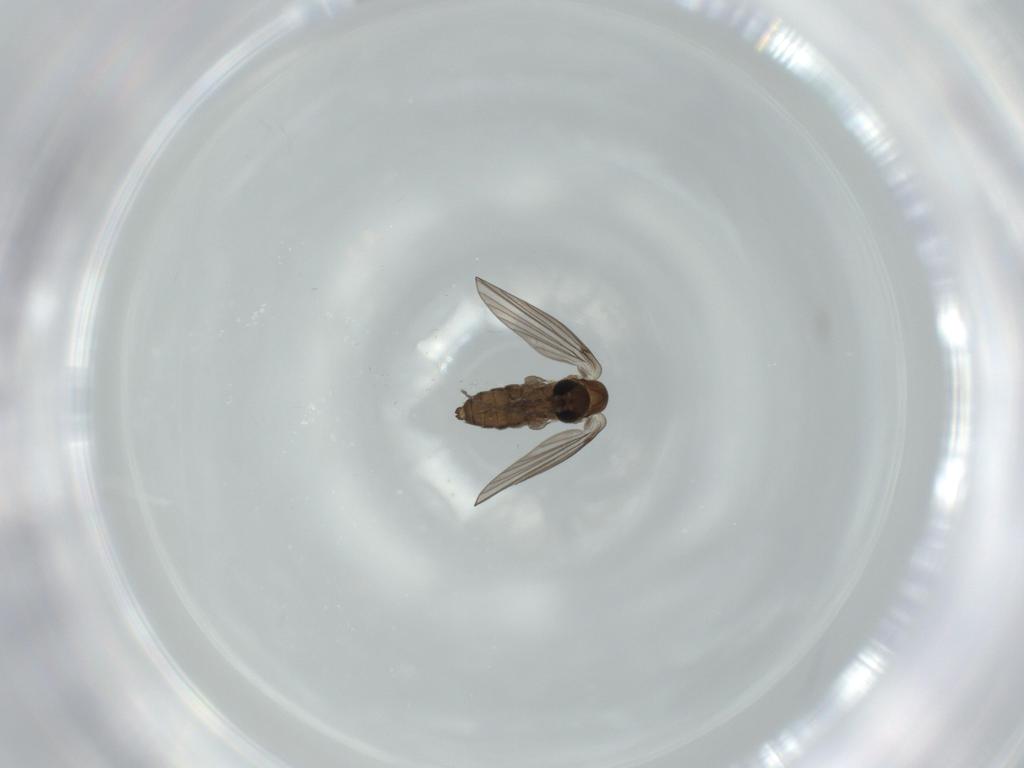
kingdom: Animalia
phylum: Arthropoda
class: Insecta
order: Diptera
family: Psychodidae
